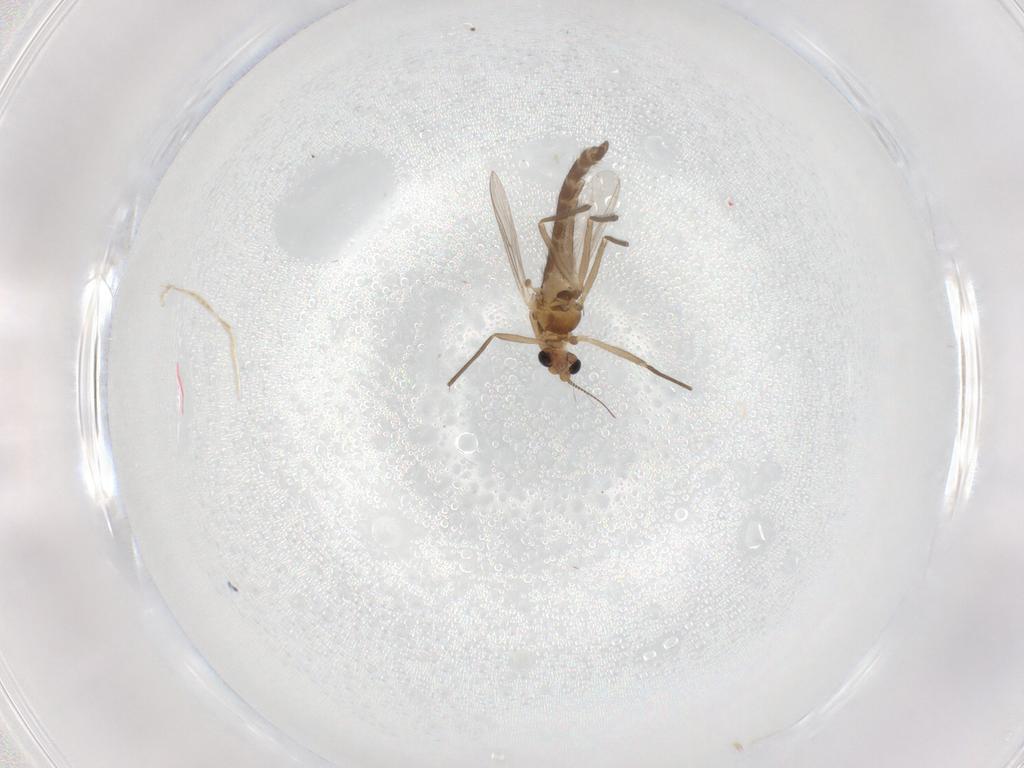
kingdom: Animalia
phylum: Arthropoda
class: Insecta
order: Diptera
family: Chironomidae
